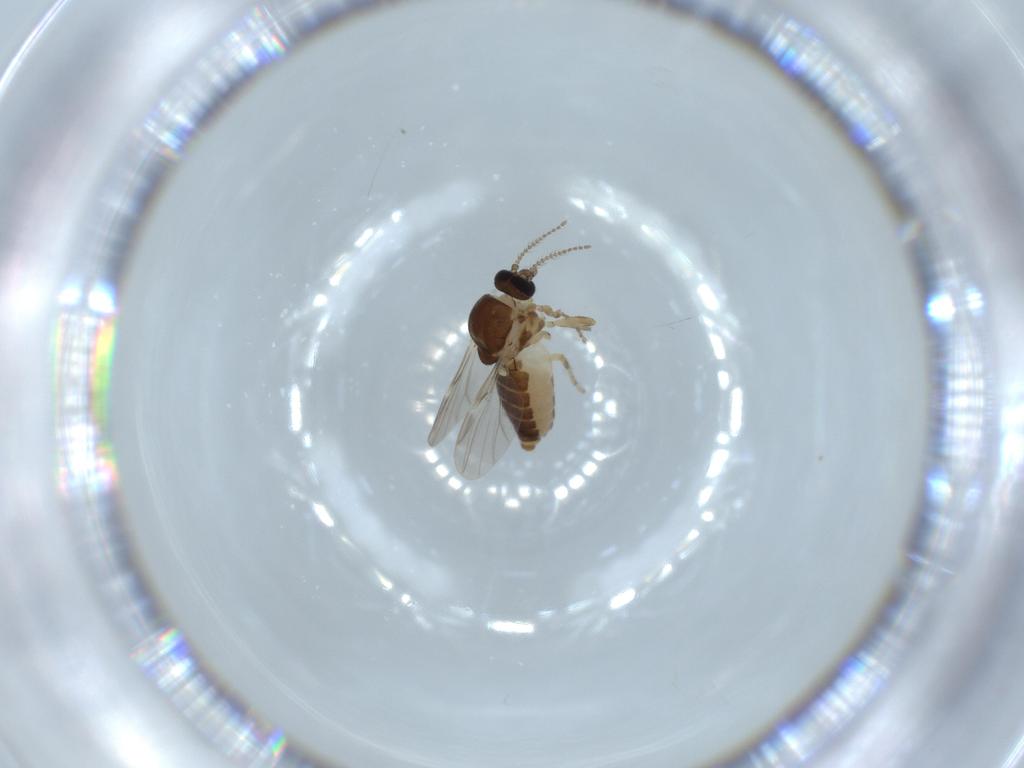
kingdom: Animalia
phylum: Arthropoda
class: Insecta
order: Diptera
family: Ceratopogonidae
